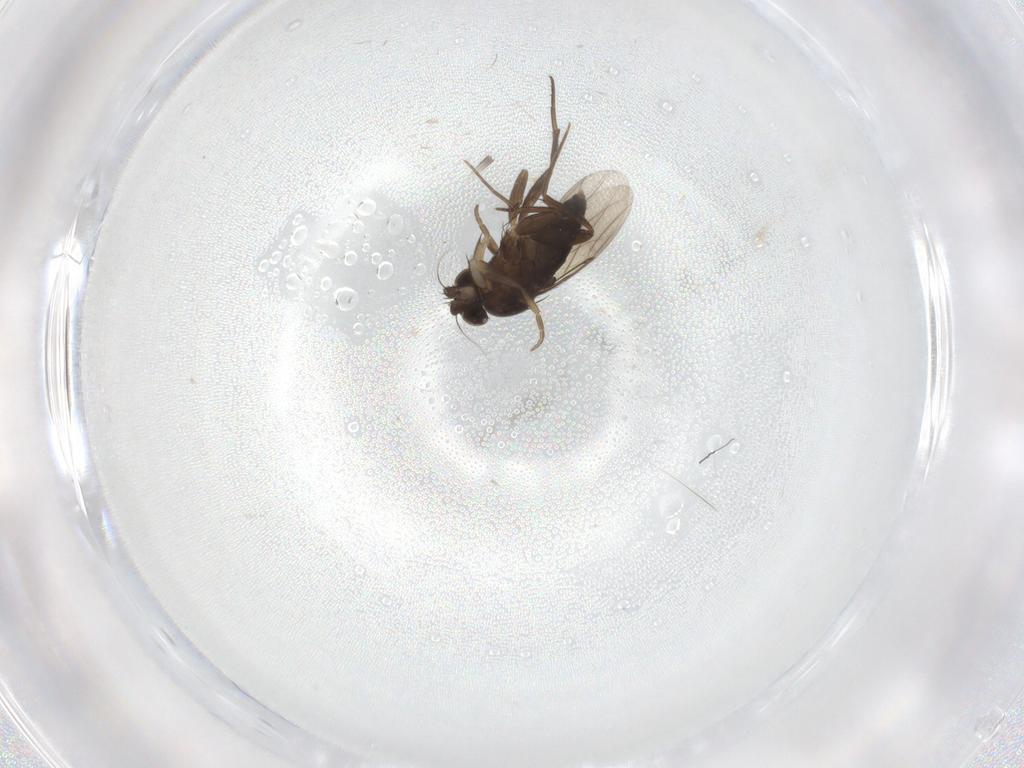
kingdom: Animalia
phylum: Arthropoda
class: Insecta
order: Diptera
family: Phoridae
